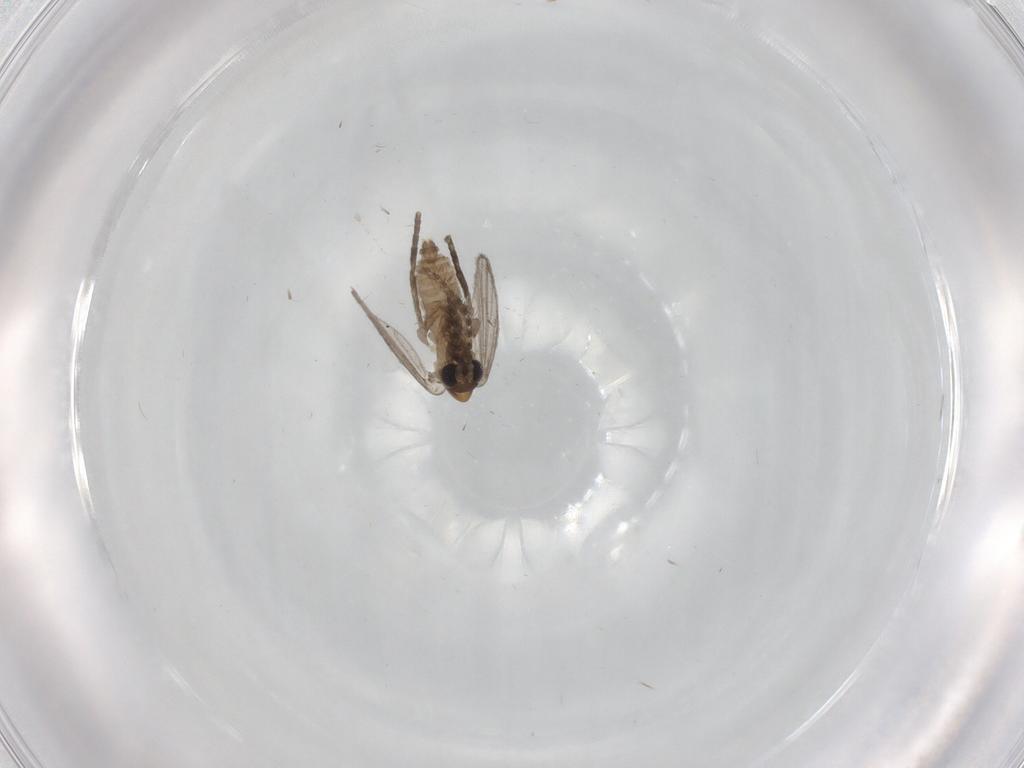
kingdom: Animalia
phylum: Arthropoda
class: Insecta
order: Diptera
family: Psychodidae
